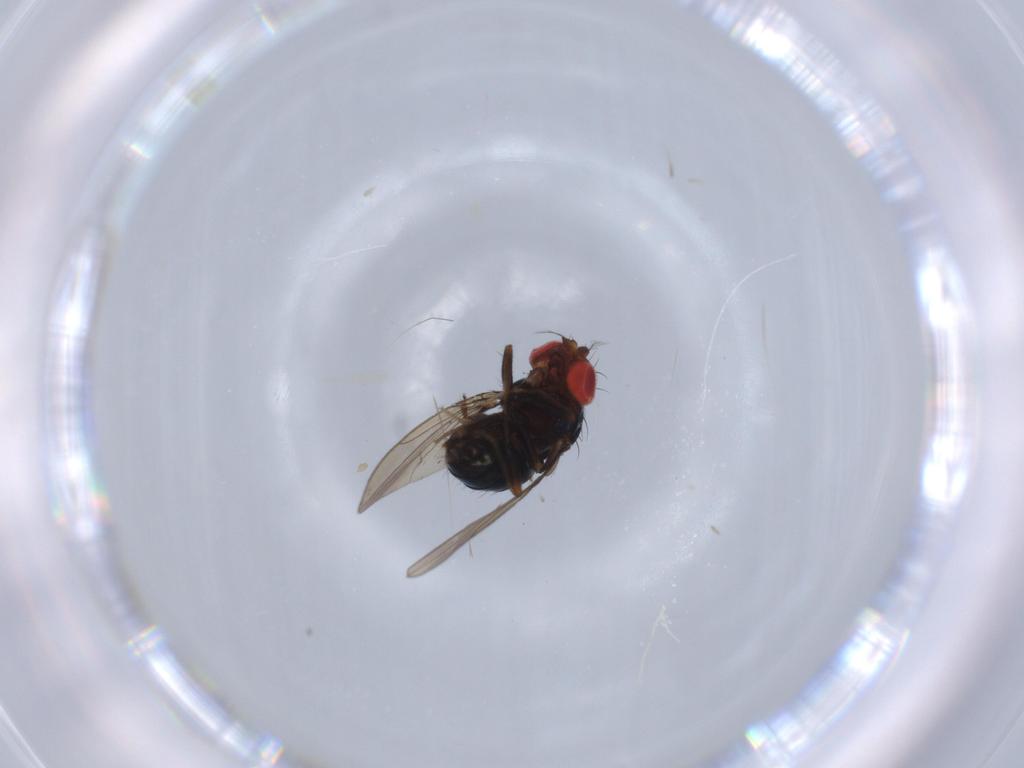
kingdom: Animalia
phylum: Arthropoda
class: Insecta
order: Diptera
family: Drosophilidae
